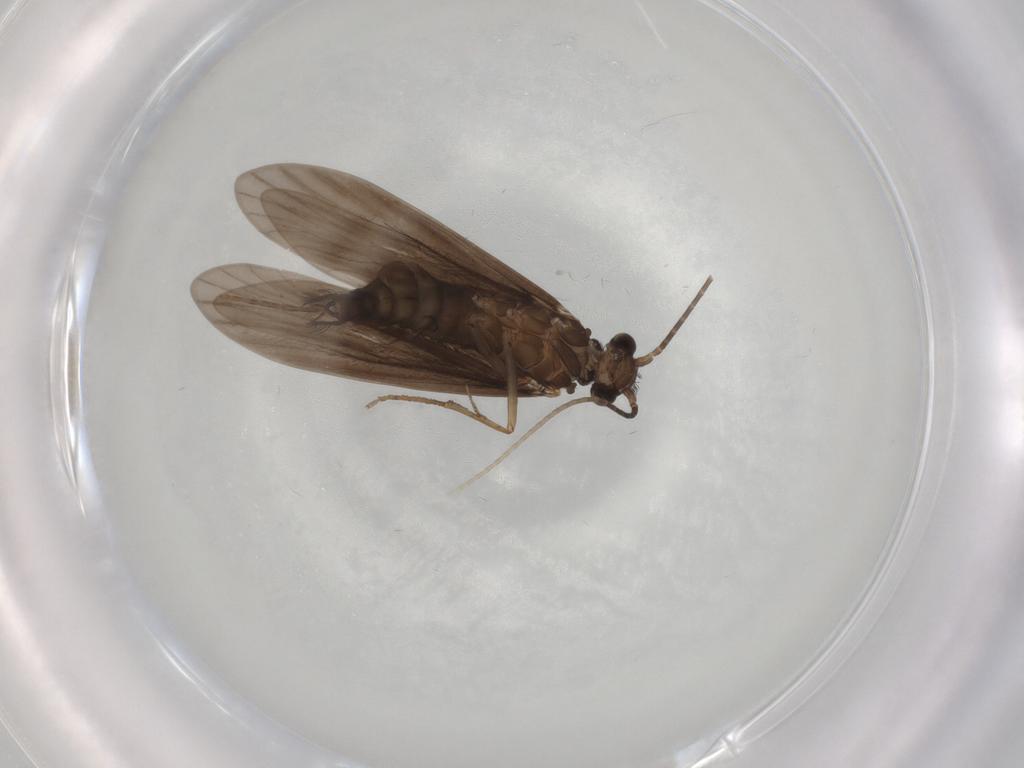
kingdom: Animalia
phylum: Arthropoda
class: Insecta
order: Trichoptera
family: Xiphocentronidae
